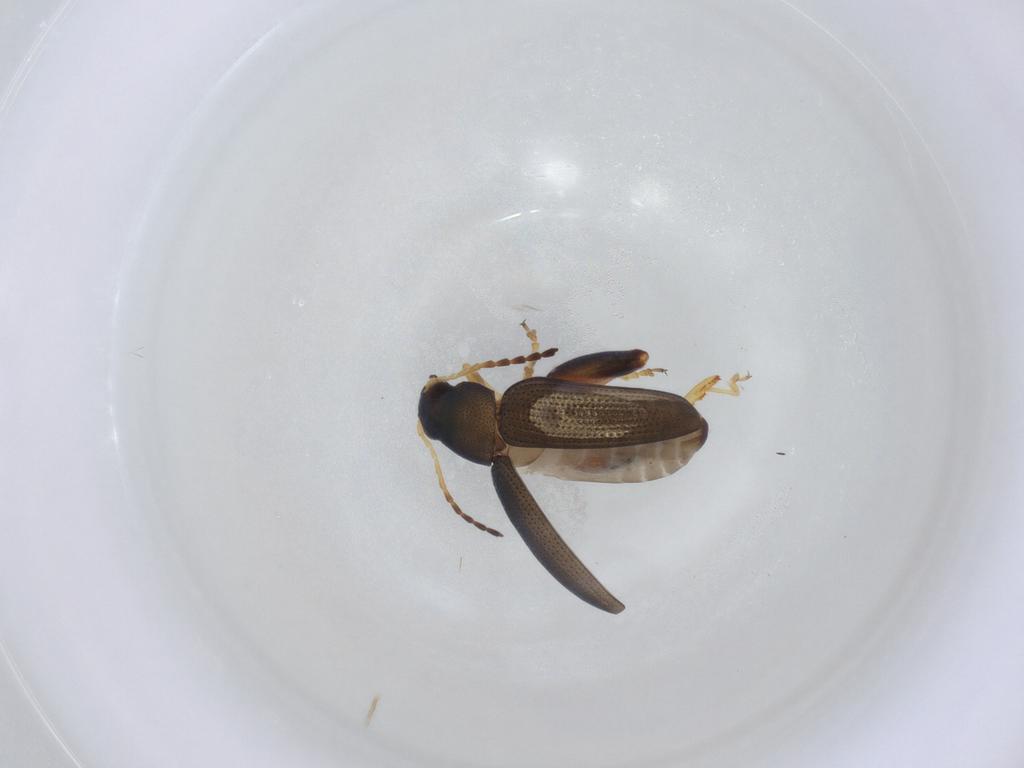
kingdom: Animalia
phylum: Arthropoda
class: Insecta
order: Coleoptera
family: Chrysomelidae
